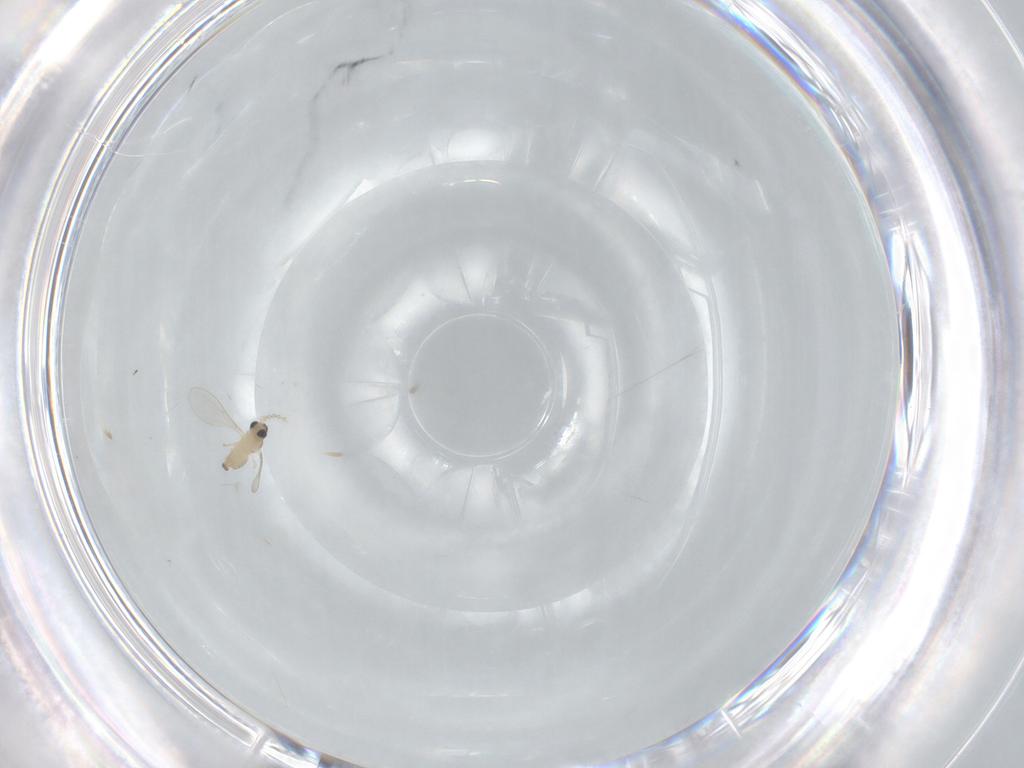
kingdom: Animalia
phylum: Arthropoda
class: Insecta
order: Diptera
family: Cecidomyiidae
